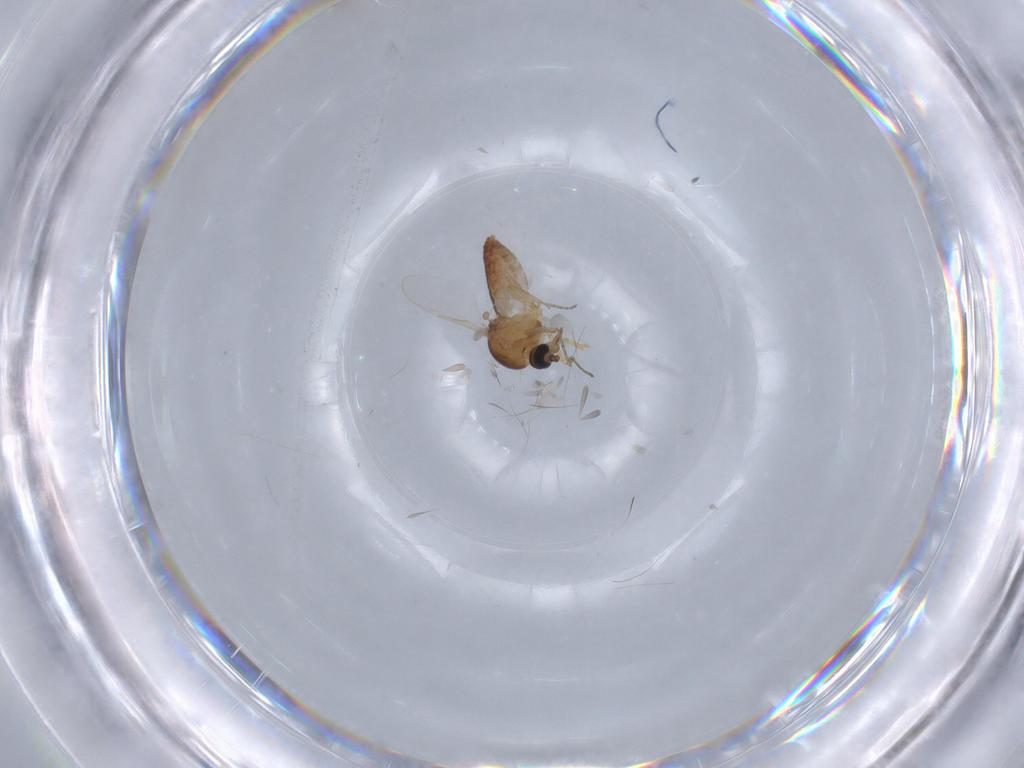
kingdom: Animalia
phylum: Arthropoda
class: Insecta
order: Diptera
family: Ceratopogonidae
